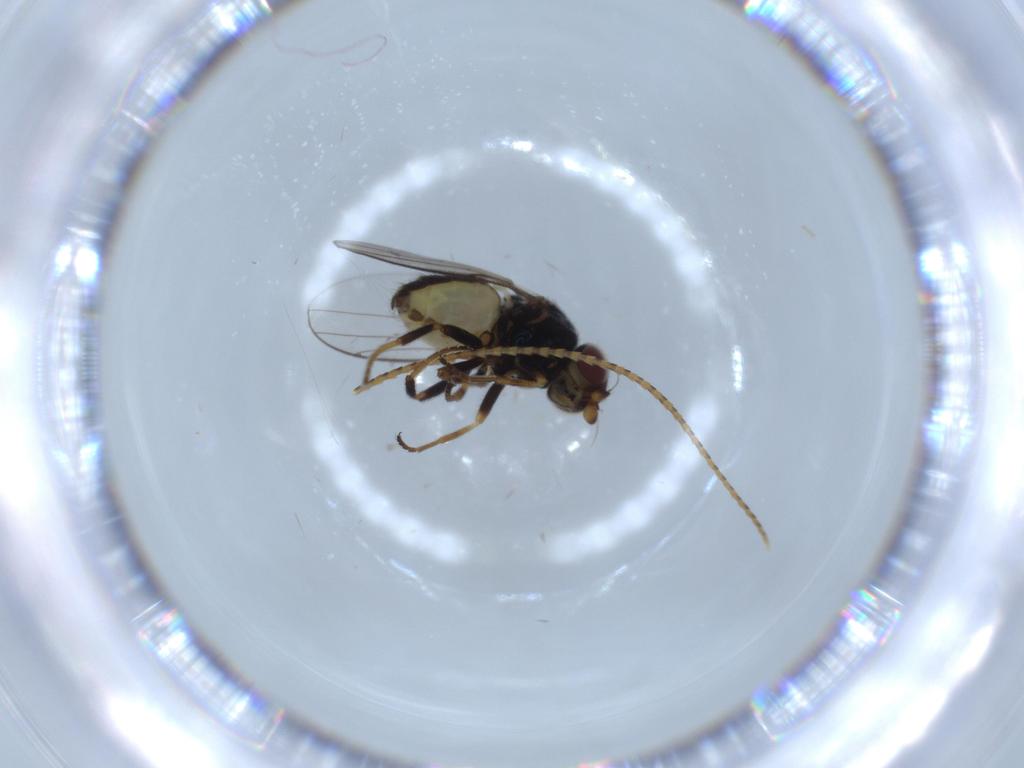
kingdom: Animalia
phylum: Arthropoda
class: Insecta
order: Diptera
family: Chloropidae
